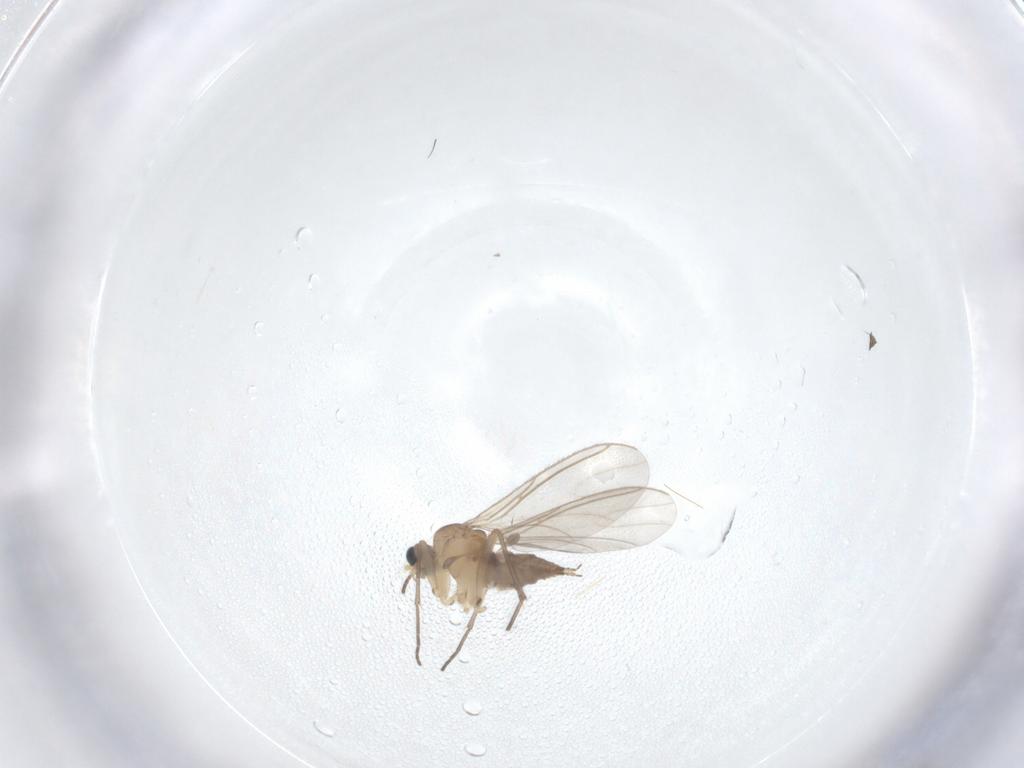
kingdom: Animalia
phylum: Arthropoda
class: Insecta
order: Diptera
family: Sciaridae
